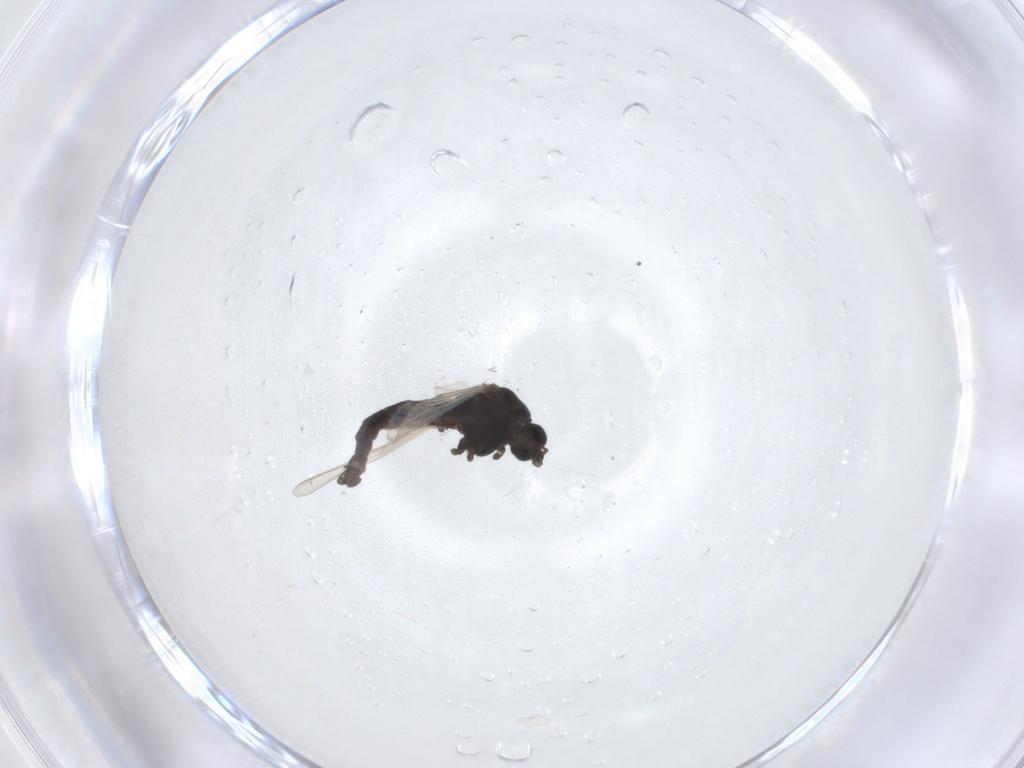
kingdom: Animalia
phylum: Arthropoda
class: Insecta
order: Diptera
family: Chironomidae
